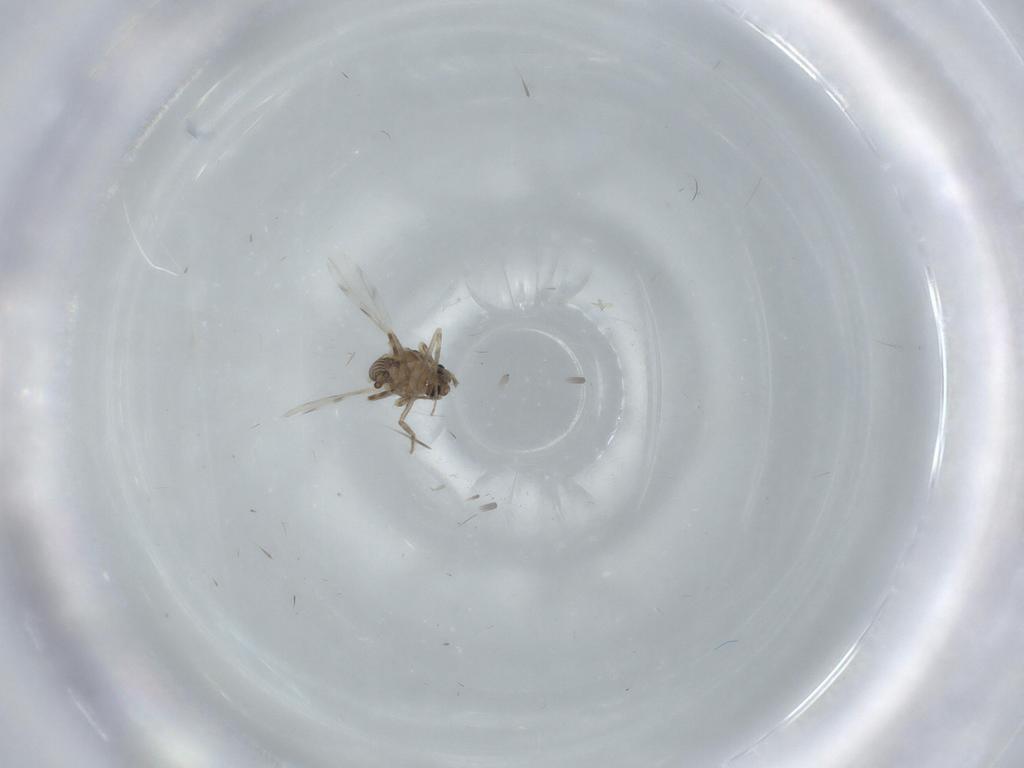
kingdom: Animalia
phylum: Arthropoda
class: Insecta
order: Diptera
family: Ceratopogonidae
